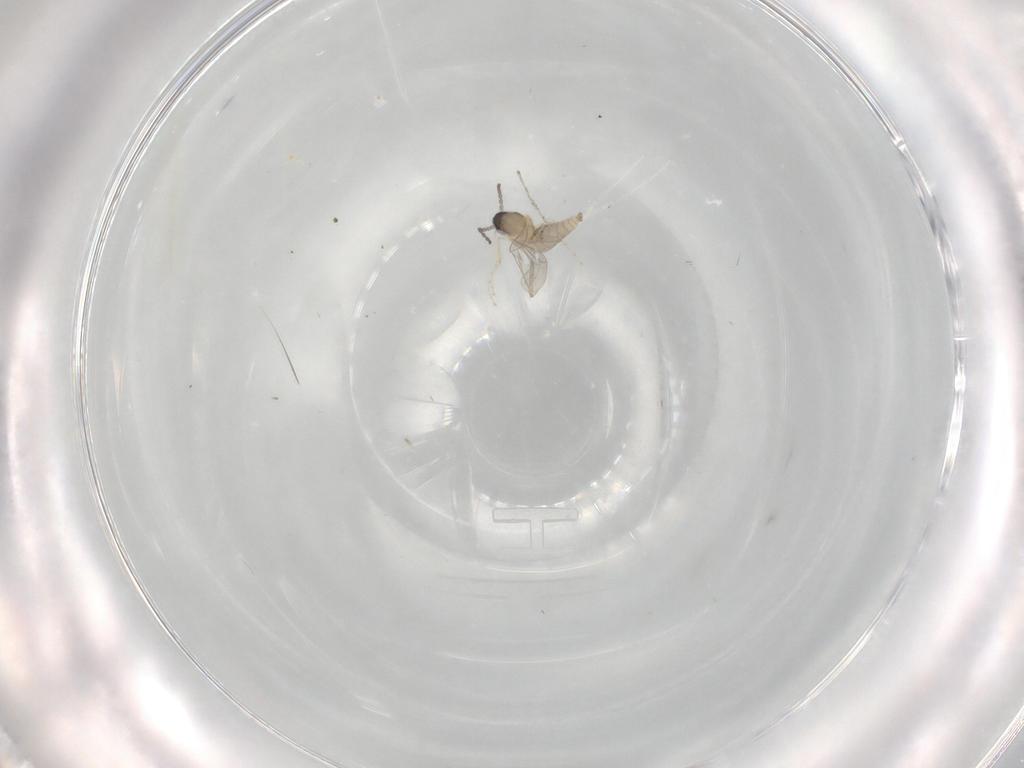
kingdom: Animalia
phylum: Arthropoda
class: Insecta
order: Diptera
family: Cecidomyiidae
